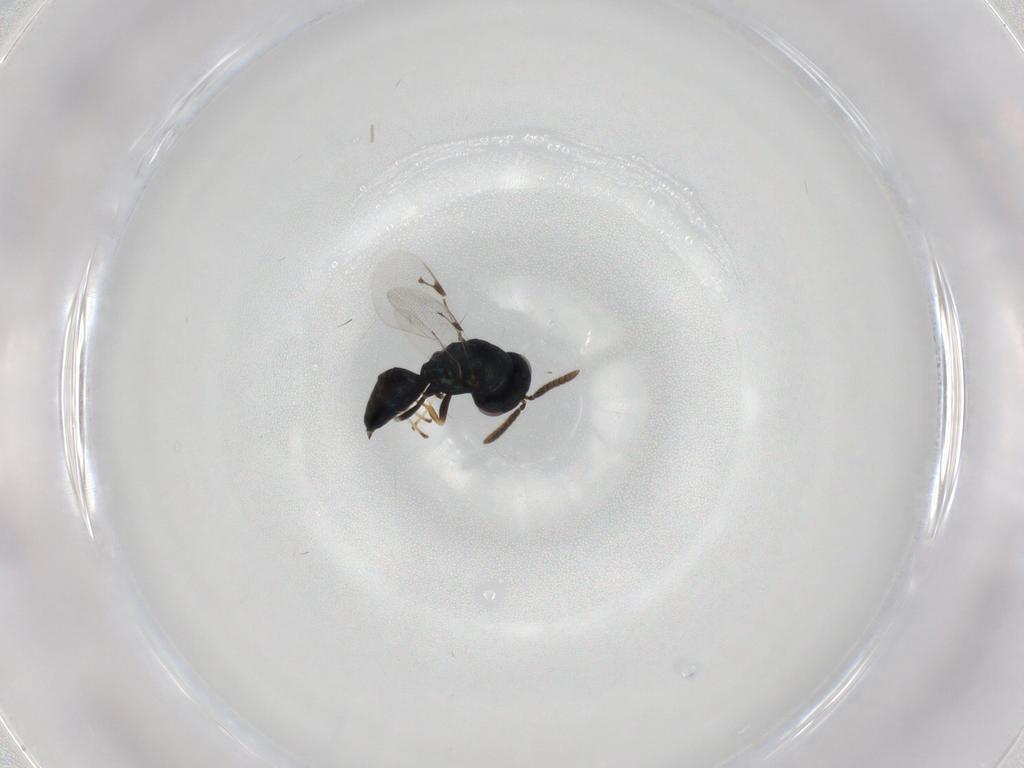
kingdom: Animalia
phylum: Arthropoda
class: Insecta
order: Hymenoptera
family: Pteromalidae
